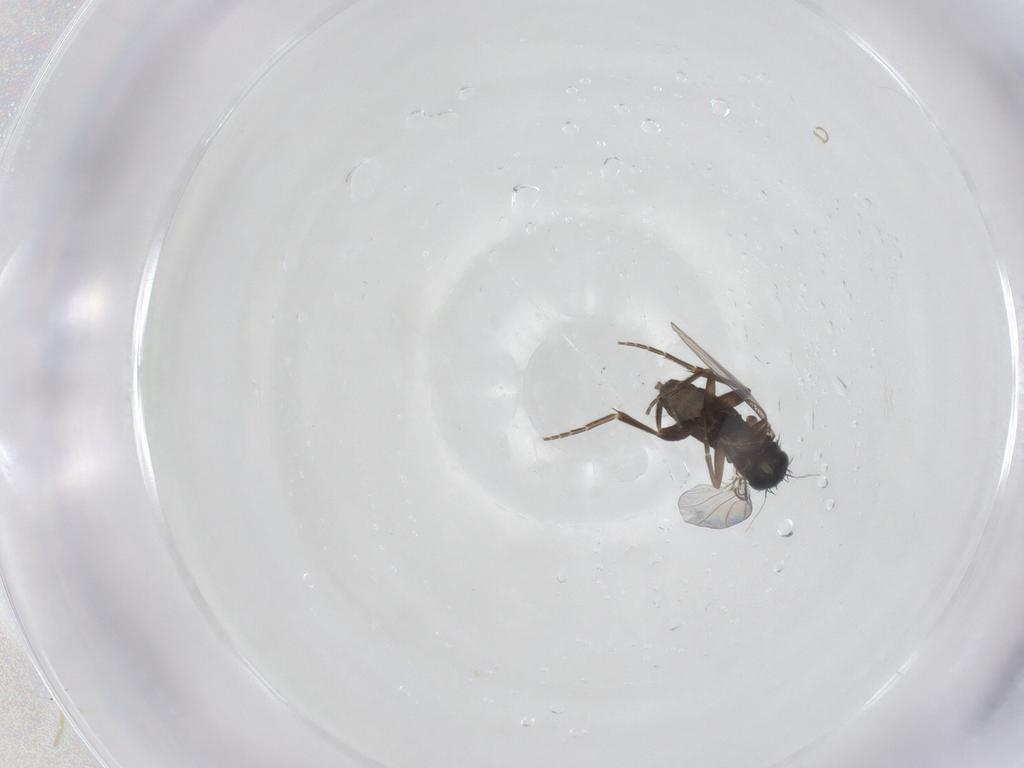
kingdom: Animalia
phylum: Arthropoda
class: Insecta
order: Diptera
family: Phoridae
